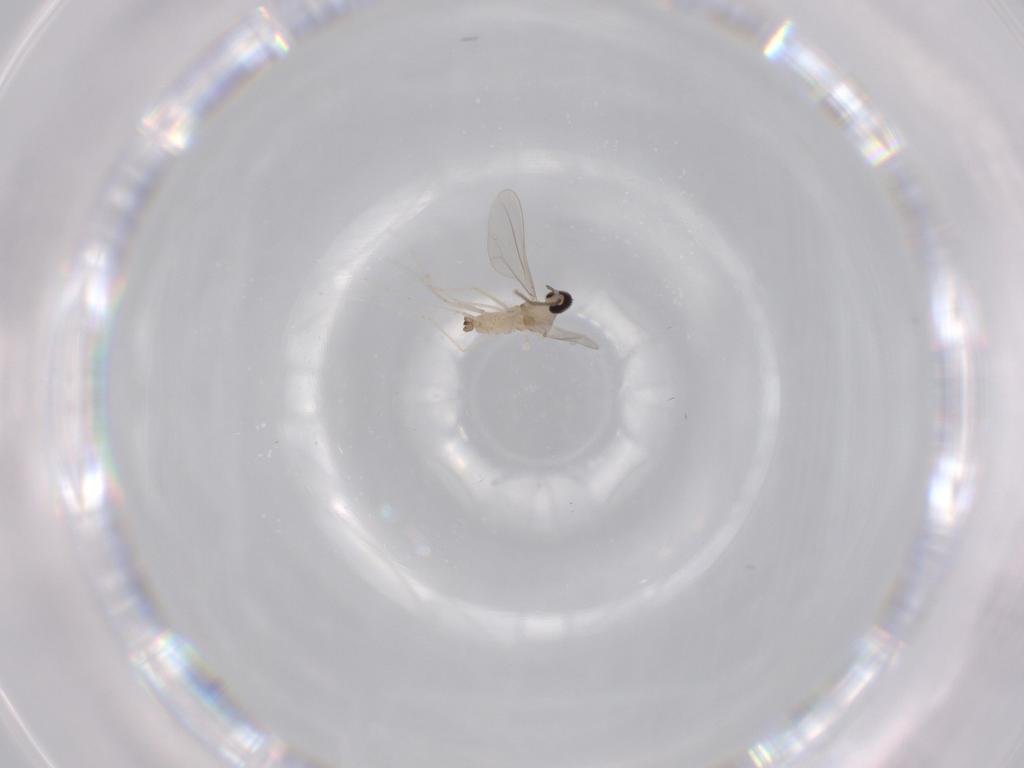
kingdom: Animalia
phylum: Arthropoda
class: Insecta
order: Diptera
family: Cecidomyiidae
